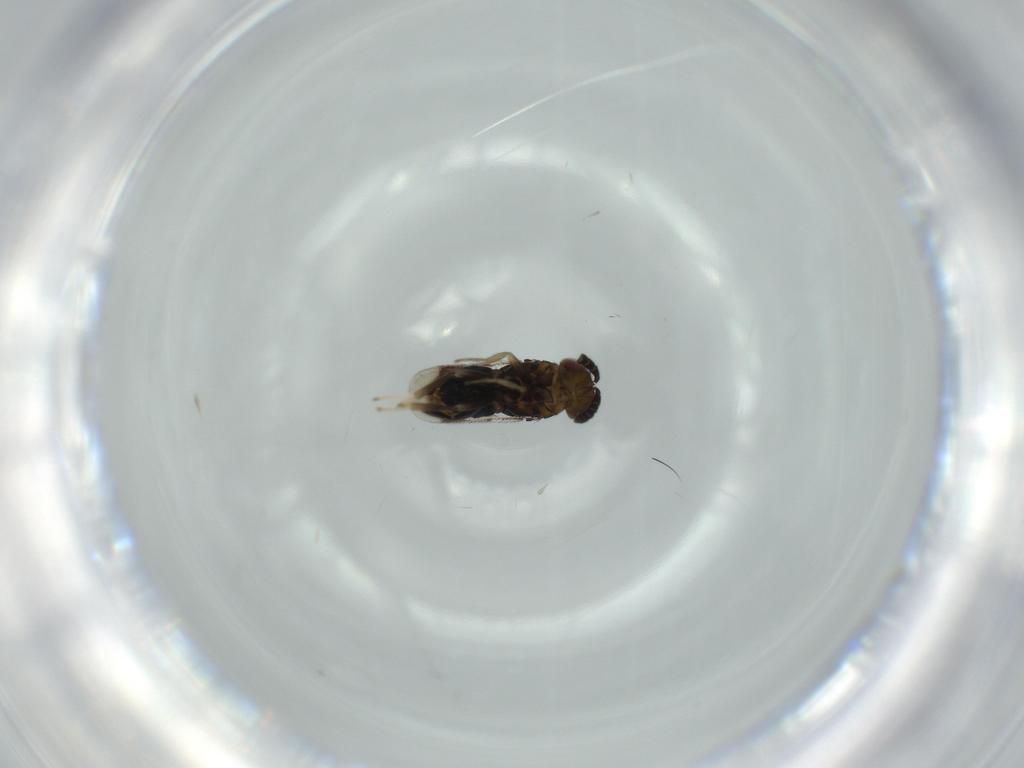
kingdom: Animalia
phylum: Arthropoda
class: Insecta
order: Hymenoptera
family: Aphelinidae
